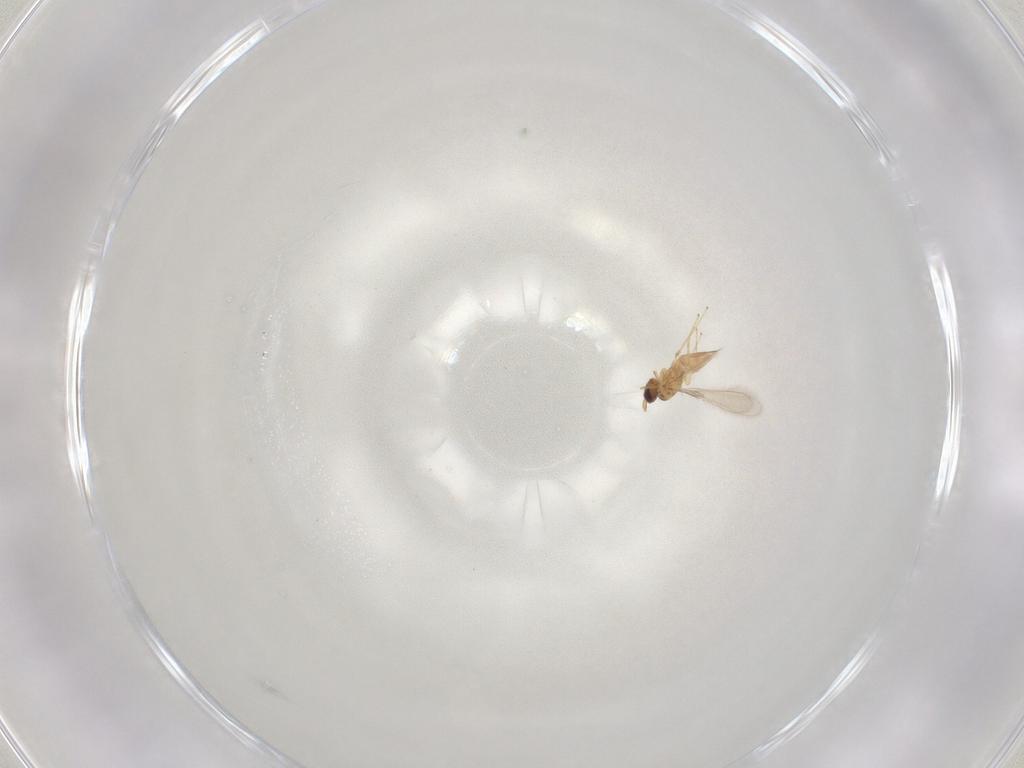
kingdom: Animalia
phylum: Arthropoda
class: Insecta
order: Hymenoptera
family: Mymaridae
